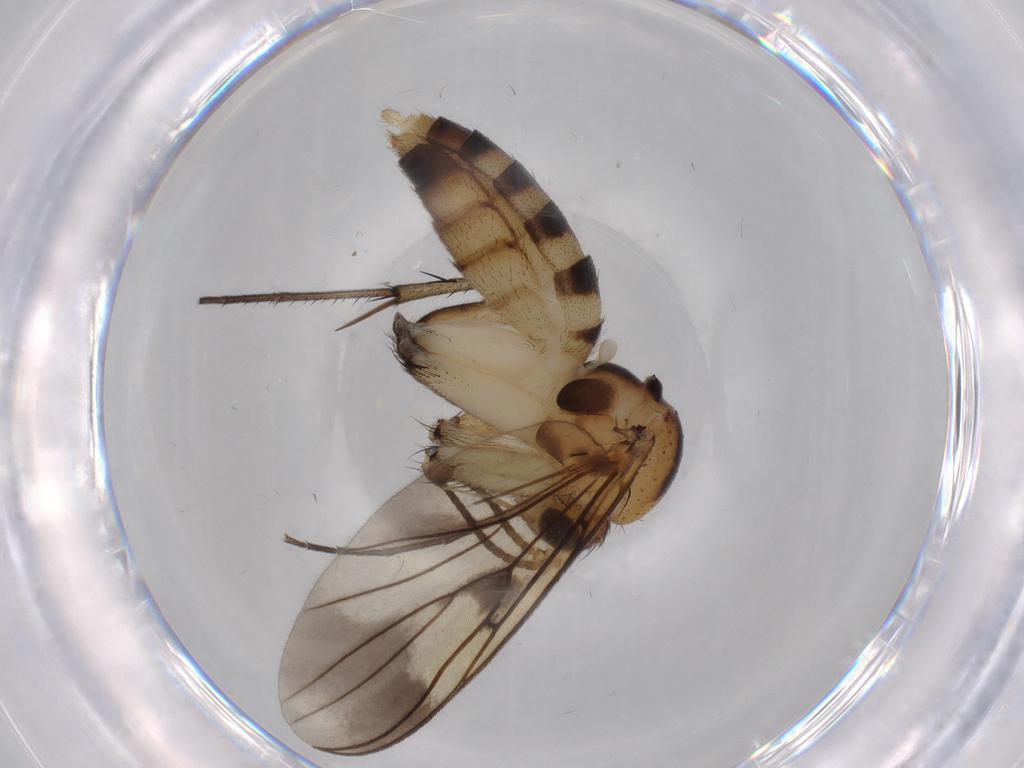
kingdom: Animalia
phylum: Arthropoda
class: Insecta
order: Diptera
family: Mycetophilidae
